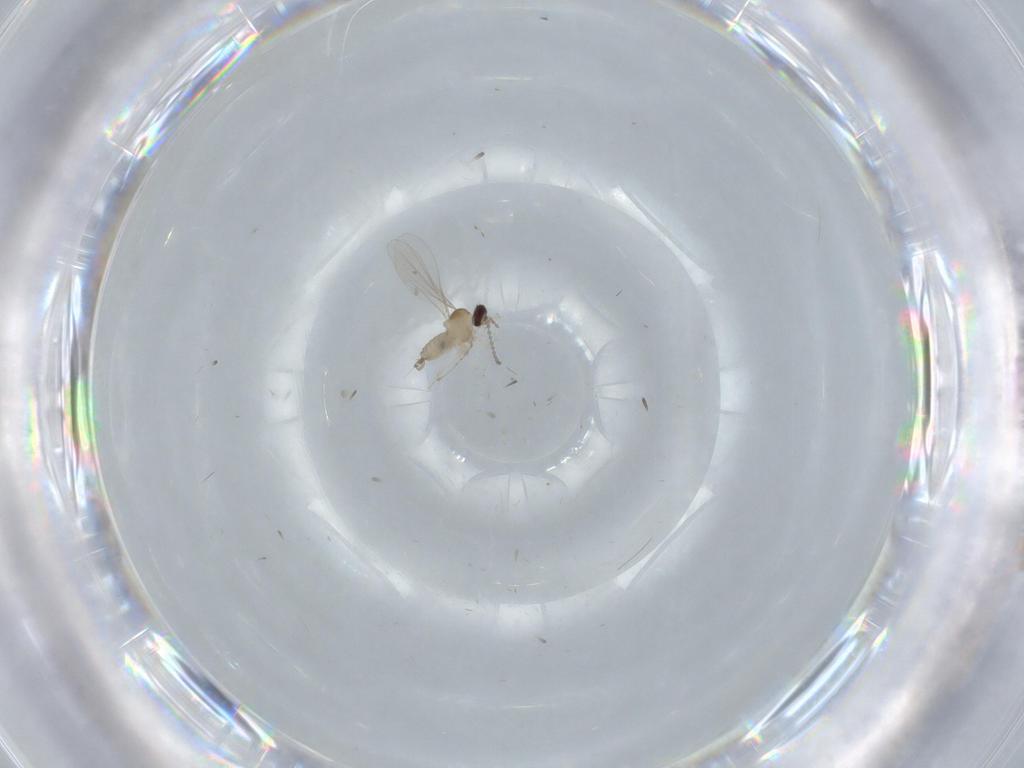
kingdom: Animalia
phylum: Arthropoda
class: Insecta
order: Diptera
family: Cecidomyiidae
